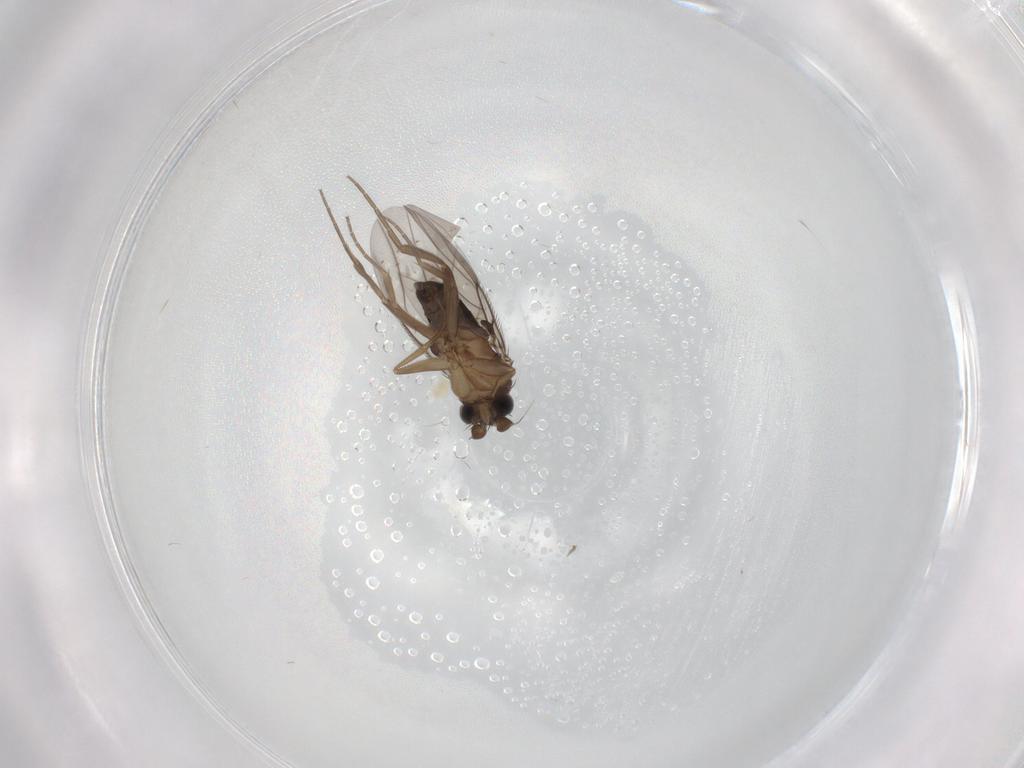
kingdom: Animalia
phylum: Arthropoda
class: Insecta
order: Diptera
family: Phoridae
